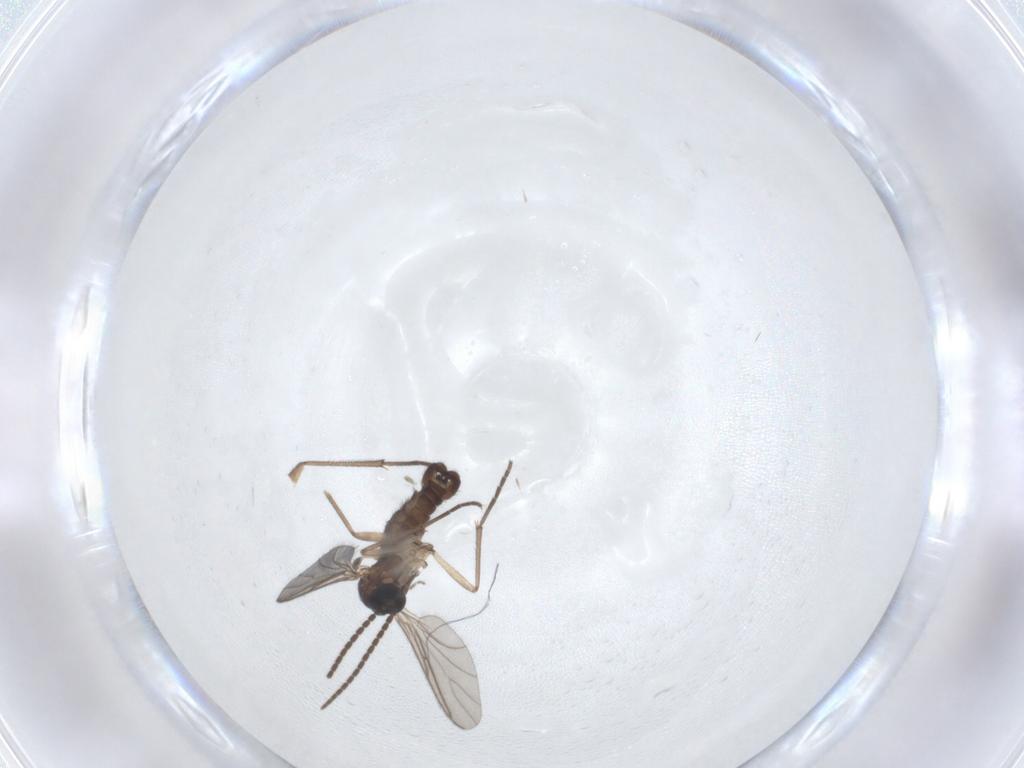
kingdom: Animalia
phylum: Arthropoda
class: Insecta
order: Diptera
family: Sciaridae
